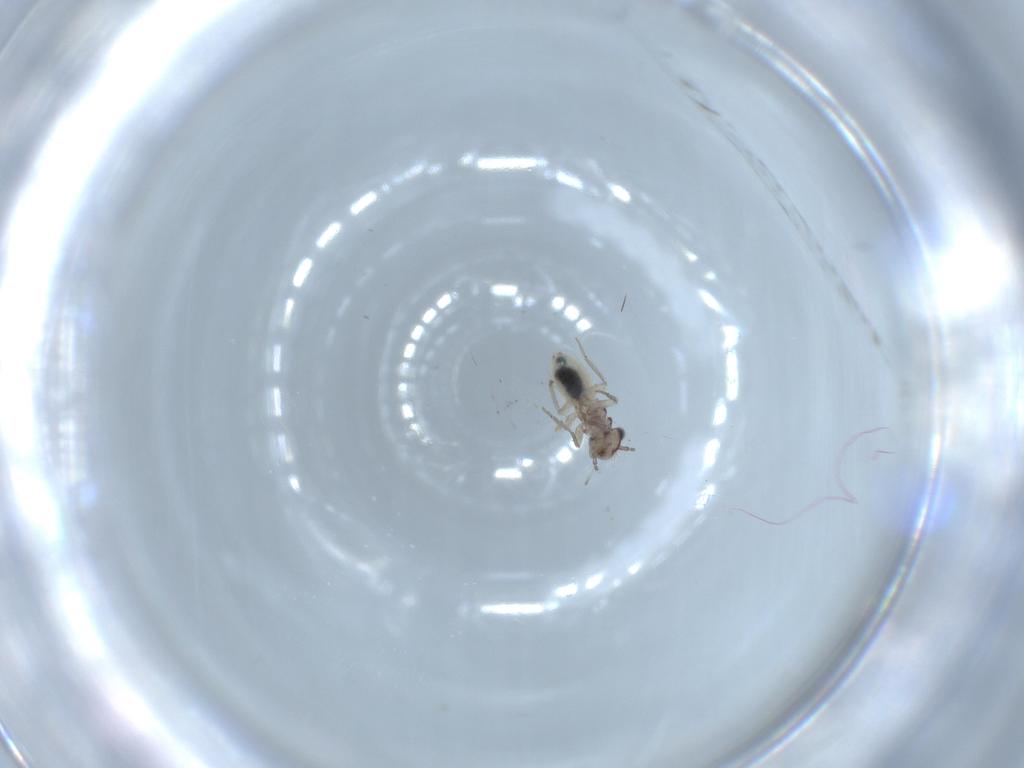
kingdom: Animalia
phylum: Arthropoda
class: Insecta
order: Psocodea
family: Lepidopsocidae
